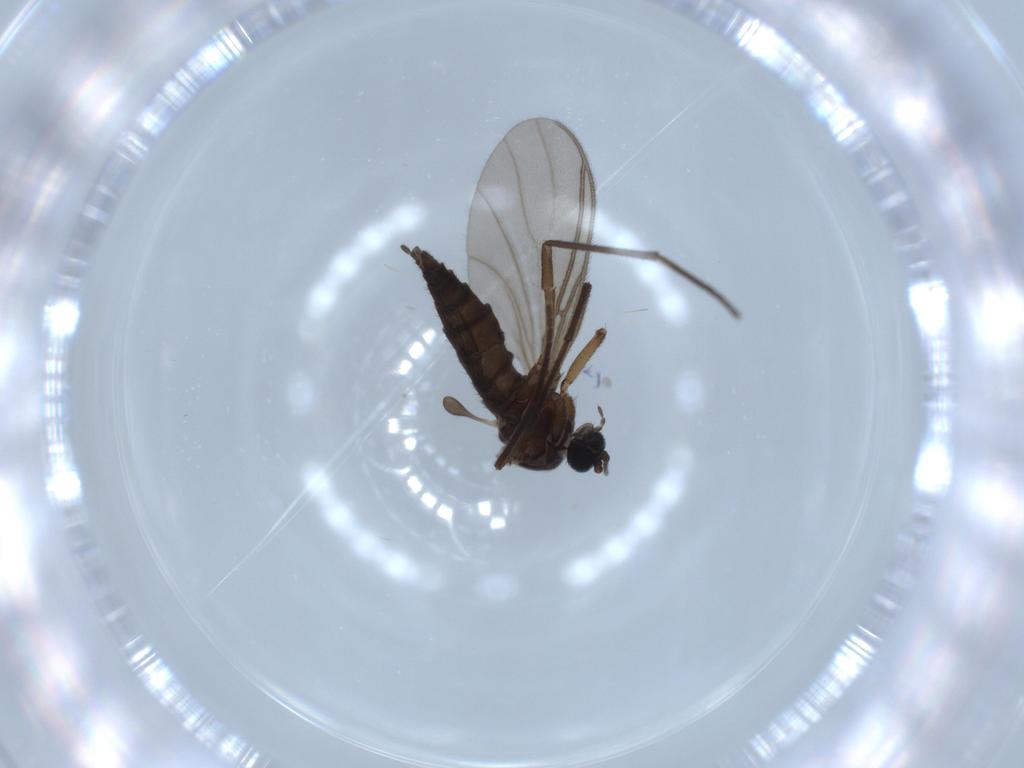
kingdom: Animalia
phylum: Arthropoda
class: Insecta
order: Diptera
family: Sciaridae
